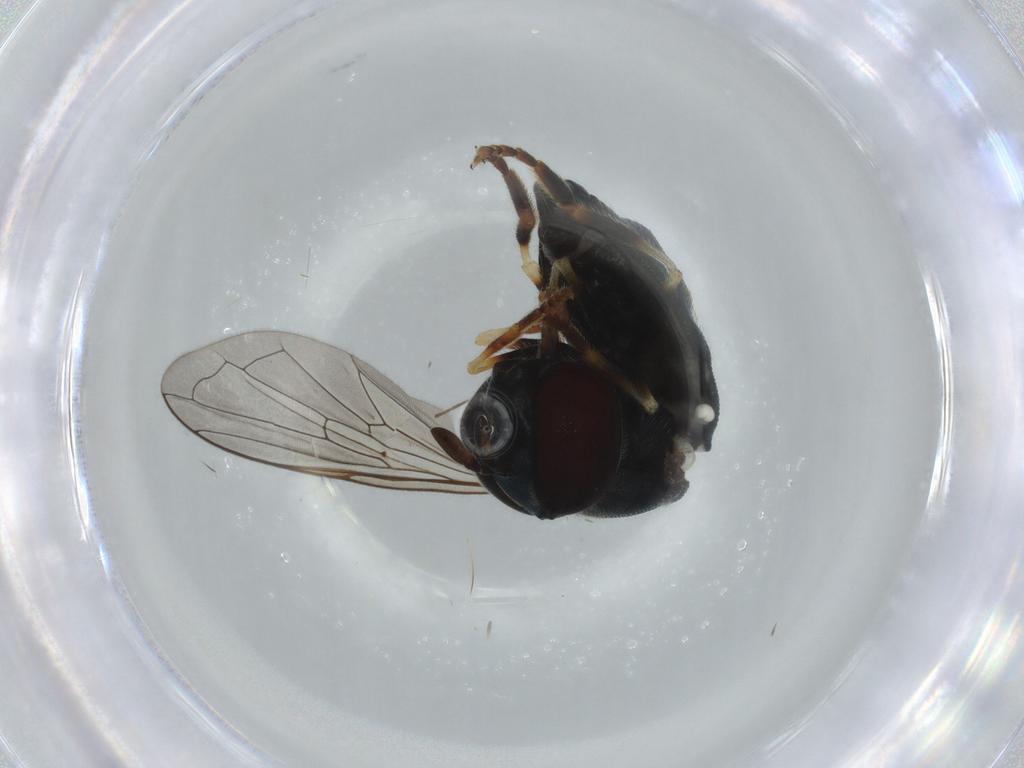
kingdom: Animalia
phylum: Arthropoda
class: Insecta
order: Diptera
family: Syrphidae
